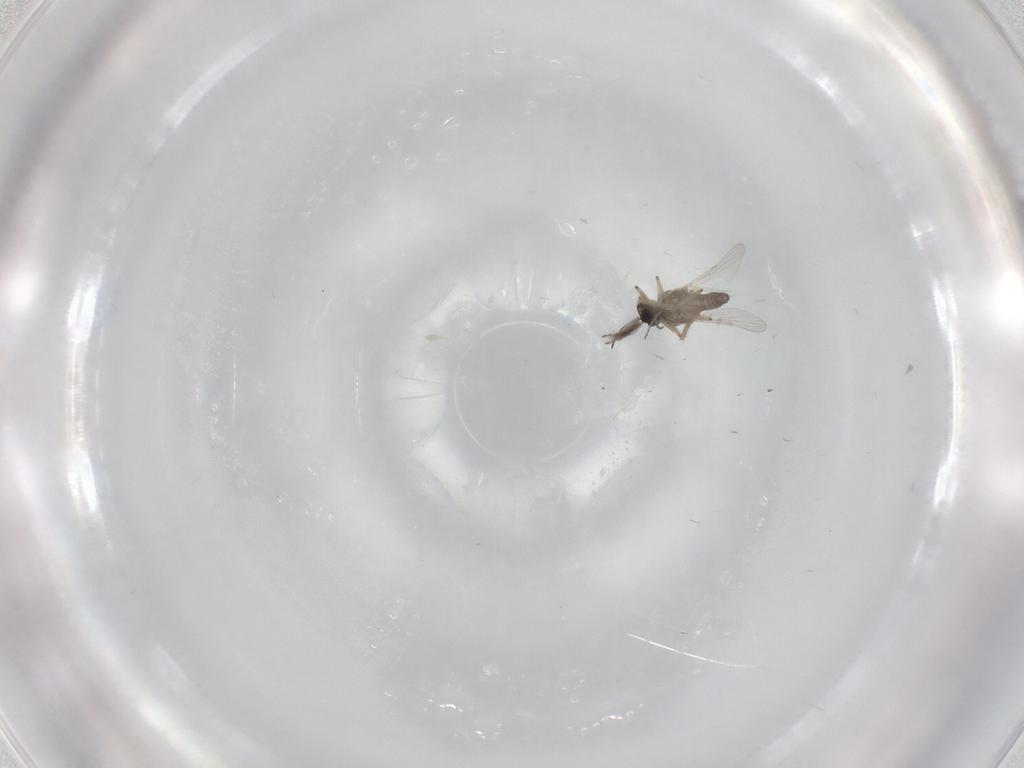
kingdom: Animalia
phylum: Arthropoda
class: Insecta
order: Diptera
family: Ceratopogonidae
